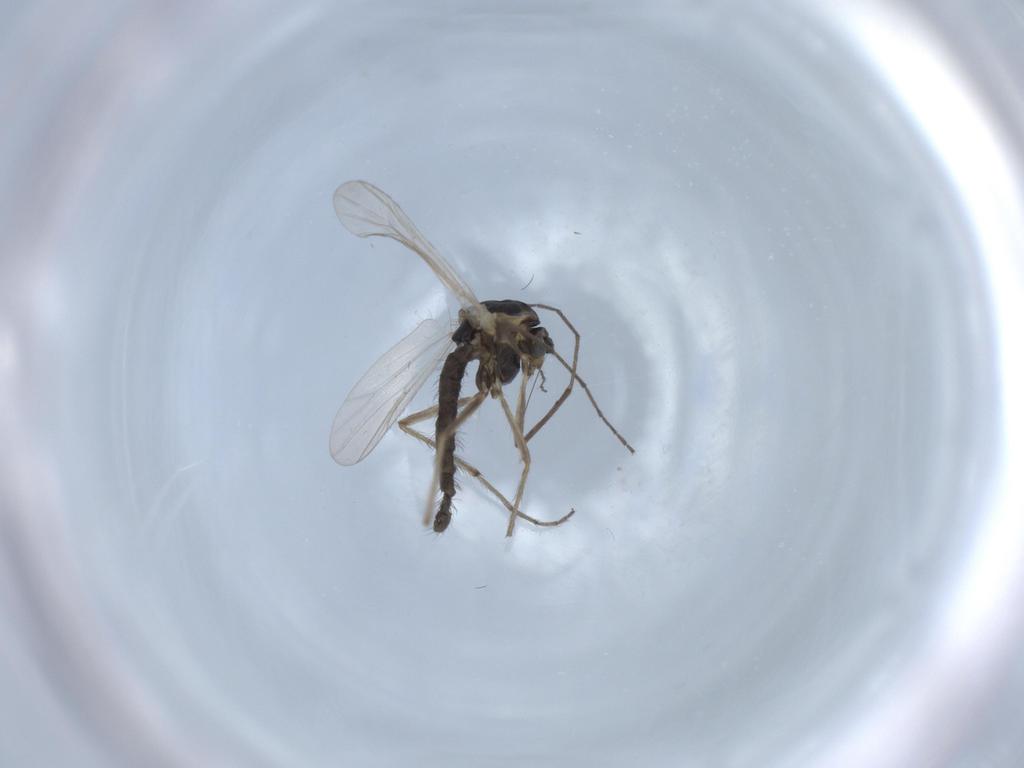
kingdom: Animalia
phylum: Arthropoda
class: Insecta
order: Diptera
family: Chironomidae
